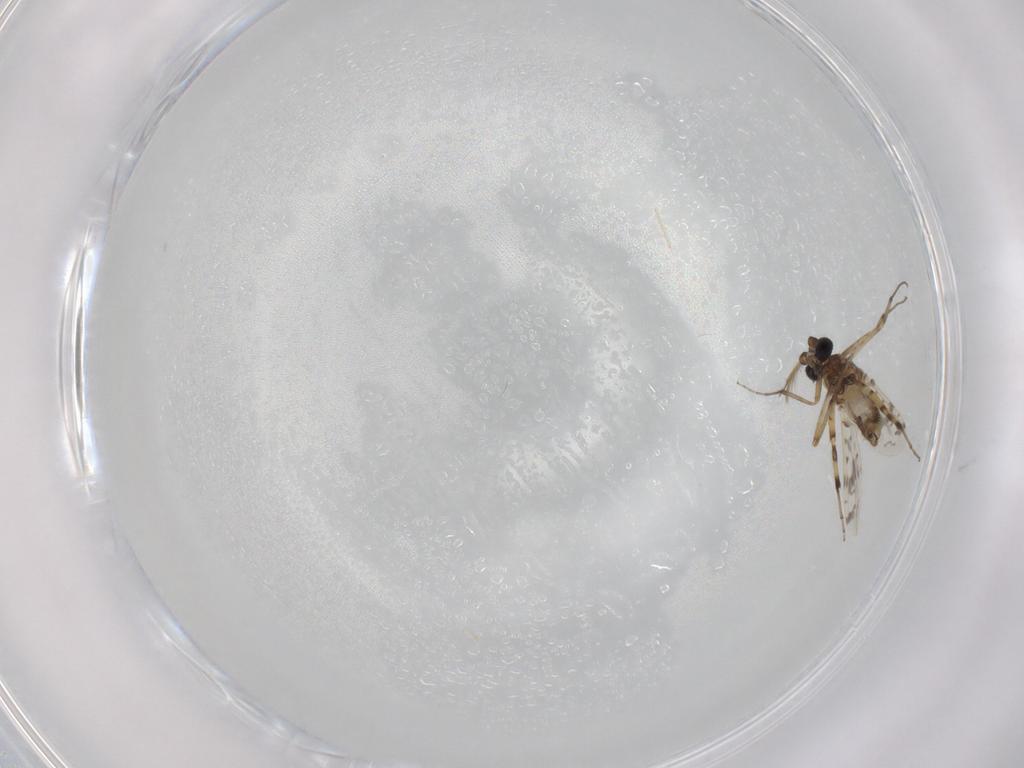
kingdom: Animalia
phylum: Arthropoda
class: Insecta
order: Diptera
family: Ceratopogonidae
